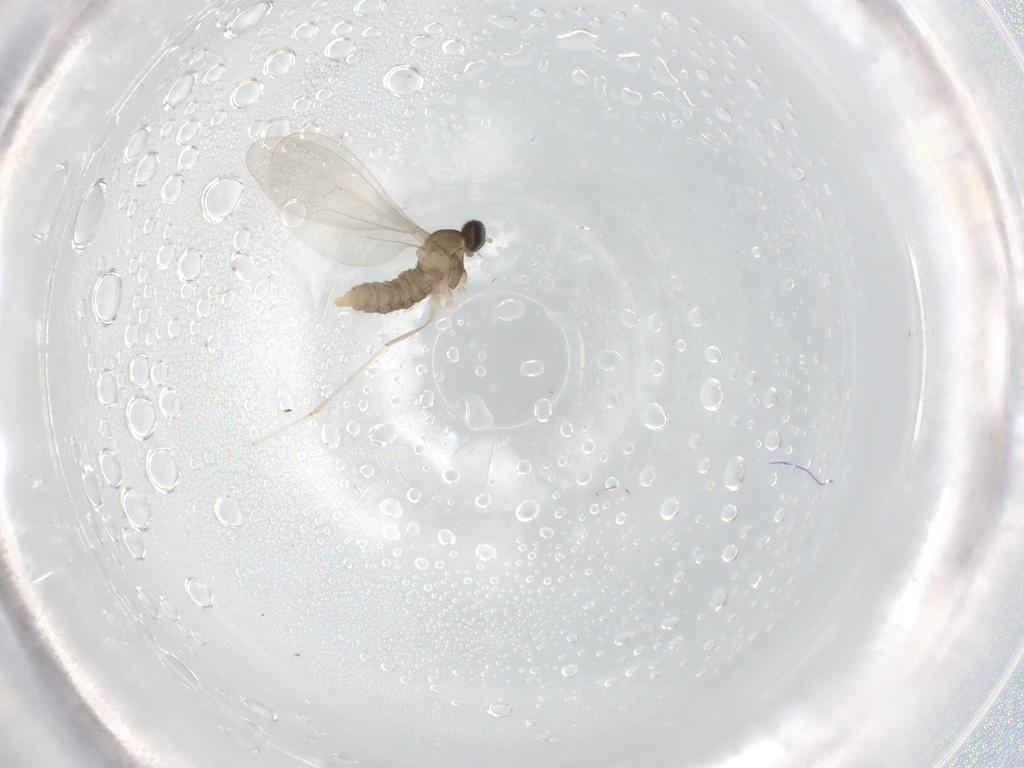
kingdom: Animalia
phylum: Arthropoda
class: Insecta
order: Diptera
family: Cecidomyiidae
